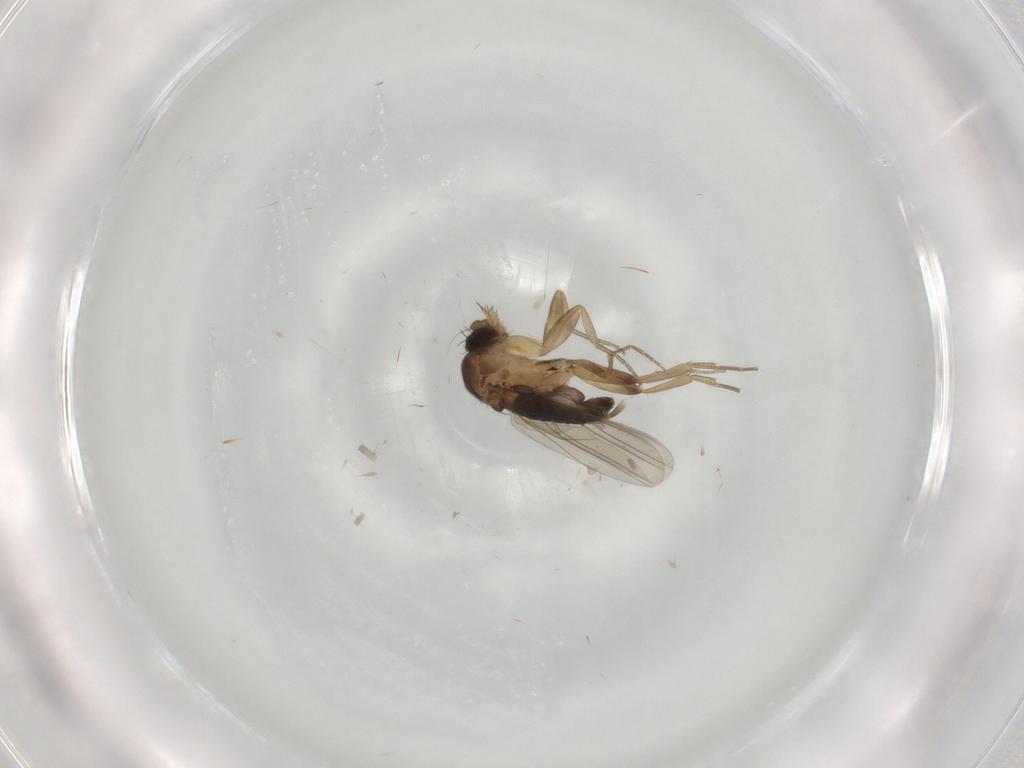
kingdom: Animalia
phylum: Arthropoda
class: Insecta
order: Diptera
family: Phoridae
